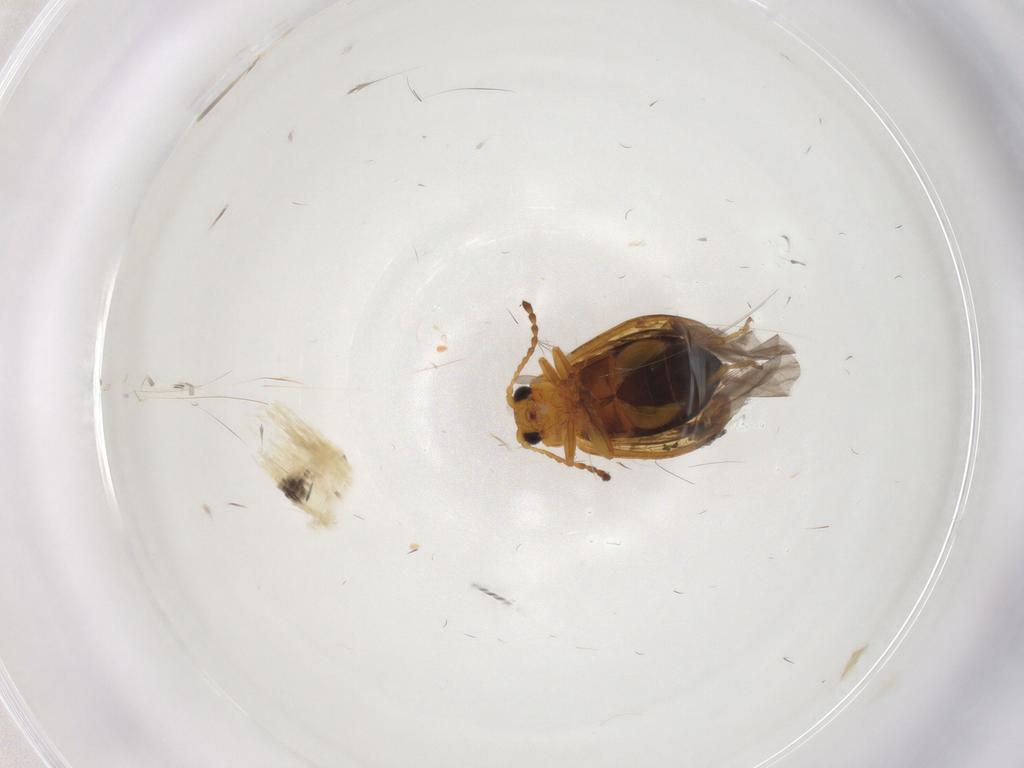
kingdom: Animalia
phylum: Arthropoda
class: Insecta
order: Coleoptera
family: Chrysomelidae
